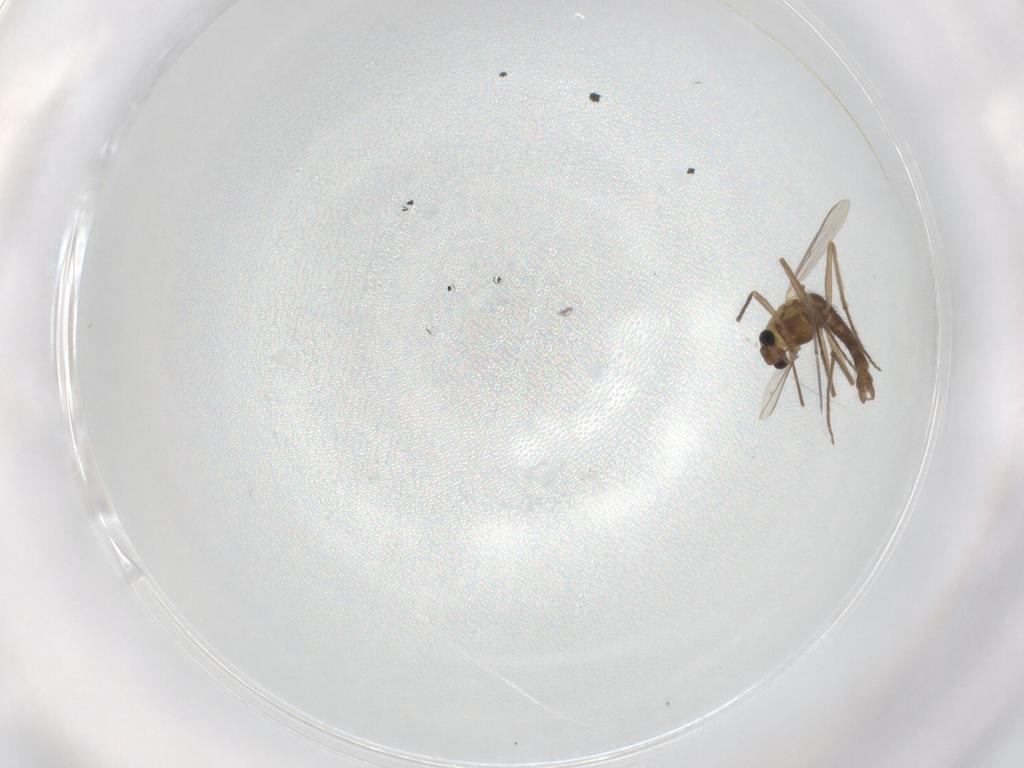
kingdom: Animalia
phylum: Arthropoda
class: Insecta
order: Diptera
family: Chironomidae
